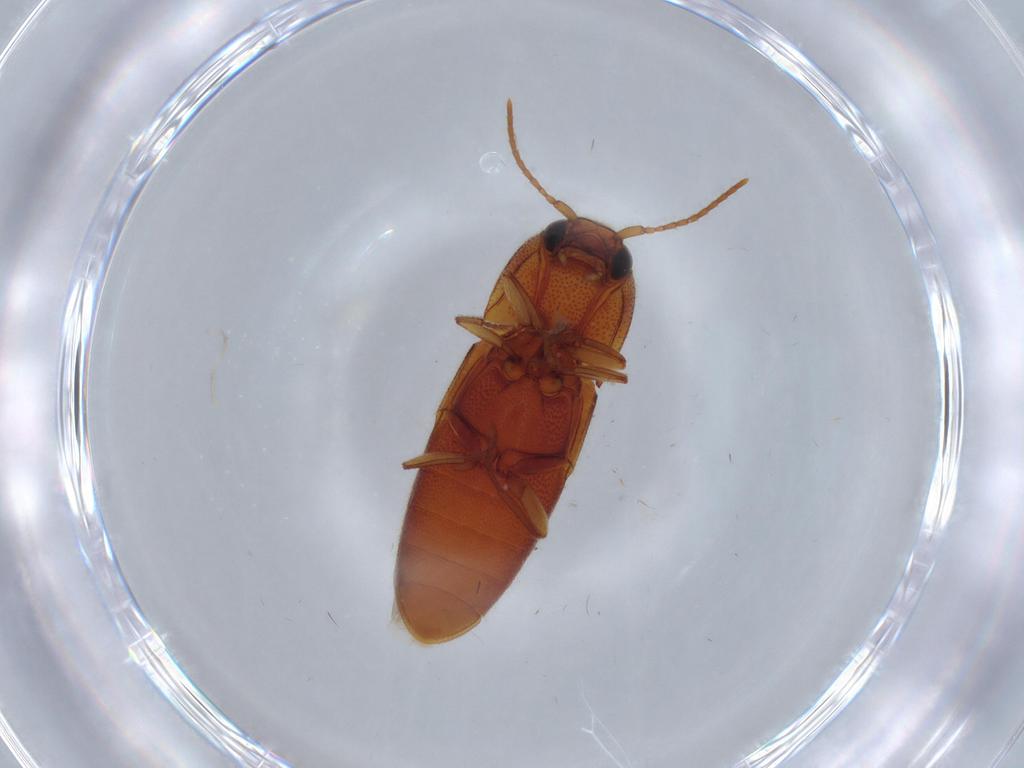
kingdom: Animalia
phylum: Arthropoda
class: Insecta
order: Coleoptera
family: Elateridae
